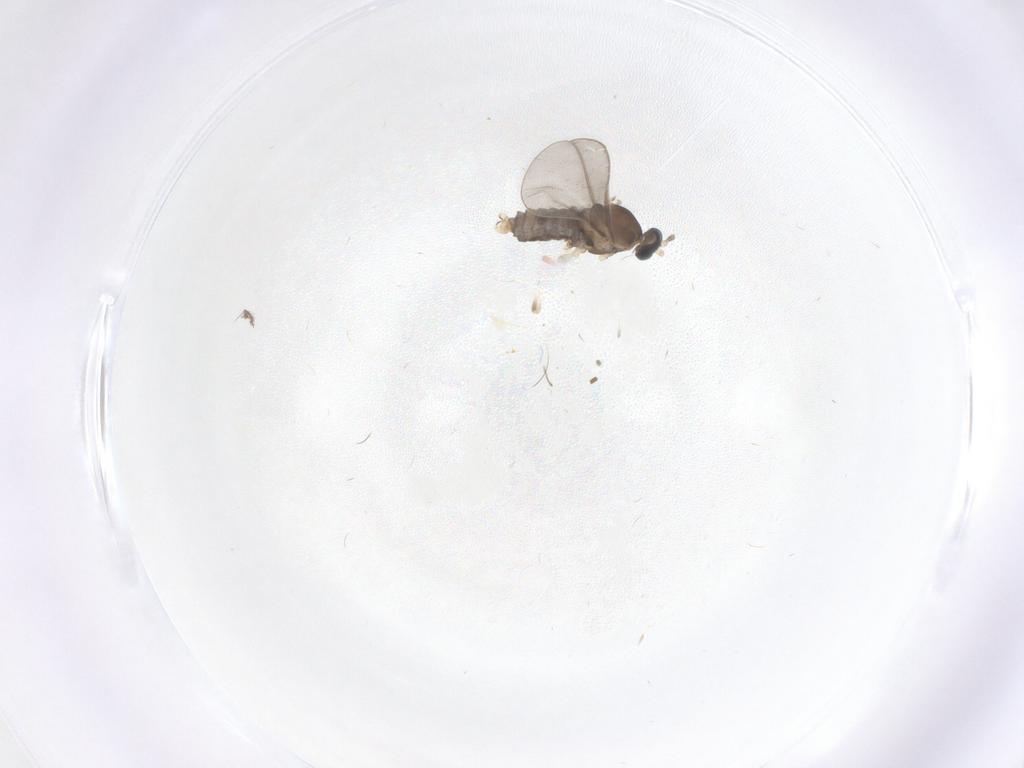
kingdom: Animalia
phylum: Arthropoda
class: Insecta
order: Diptera
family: Cecidomyiidae
